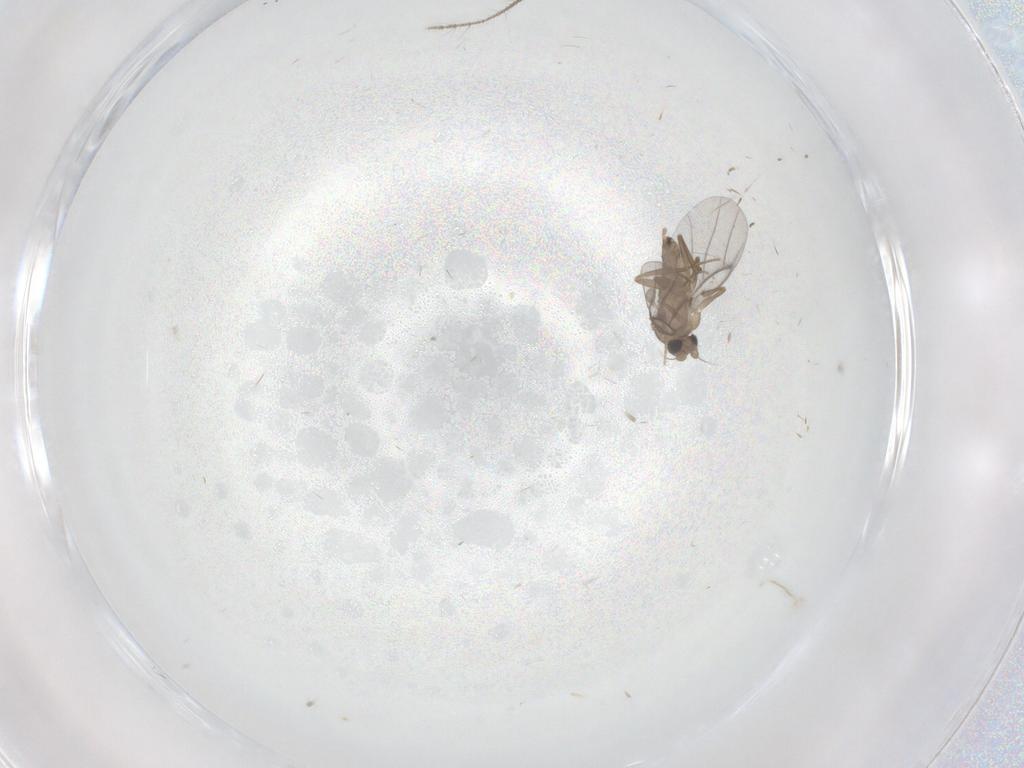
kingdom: Animalia
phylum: Arthropoda
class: Insecta
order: Diptera
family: Ceratopogonidae
